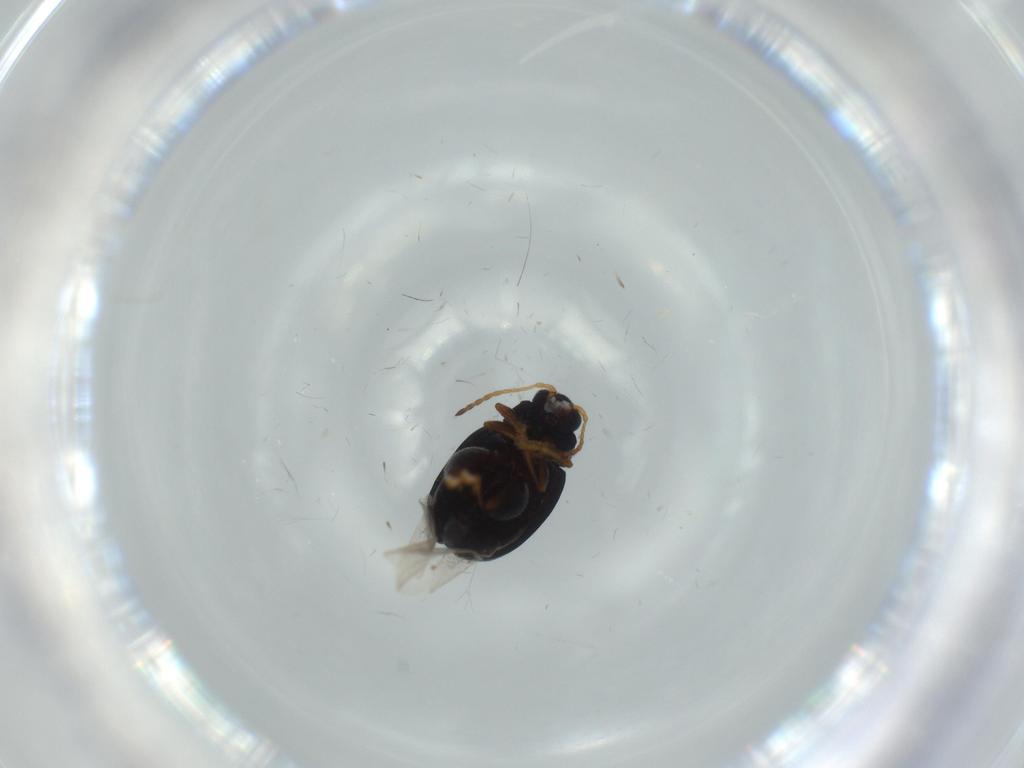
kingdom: Animalia
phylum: Arthropoda
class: Insecta
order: Coleoptera
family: Chrysomelidae
